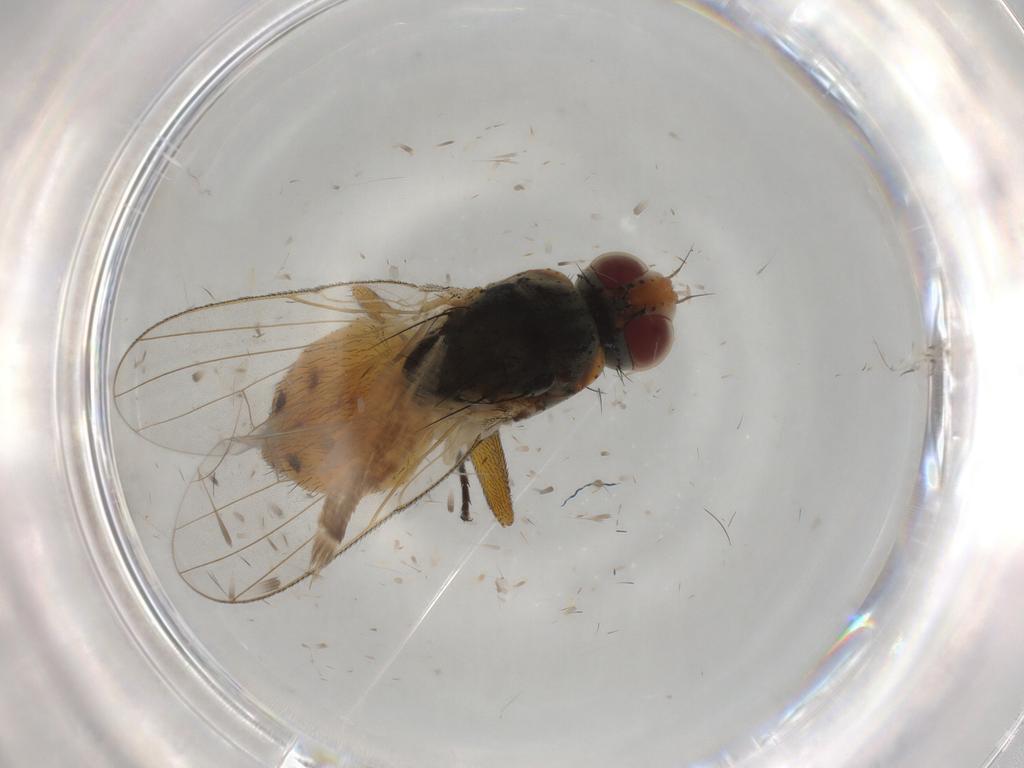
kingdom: Animalia
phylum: Arthropoda
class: Insecta
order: Diptera
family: Muscidae
